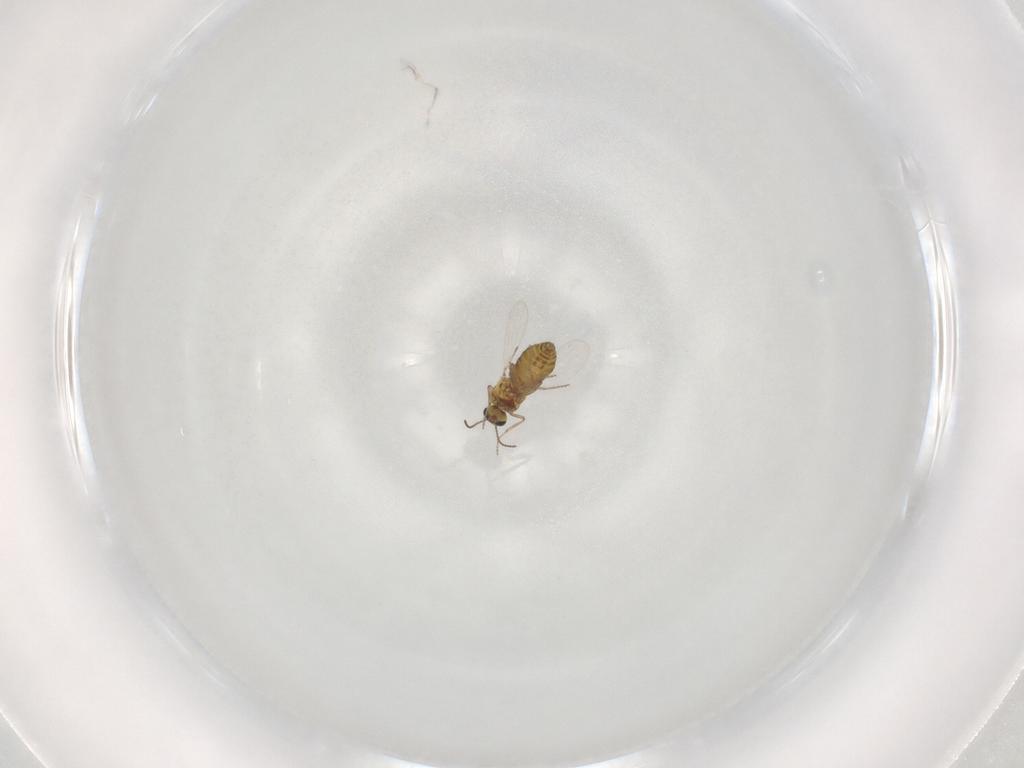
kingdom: Animalia
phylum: Arthropoda
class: Insecta
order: Diptera
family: Ceratopogonidae
